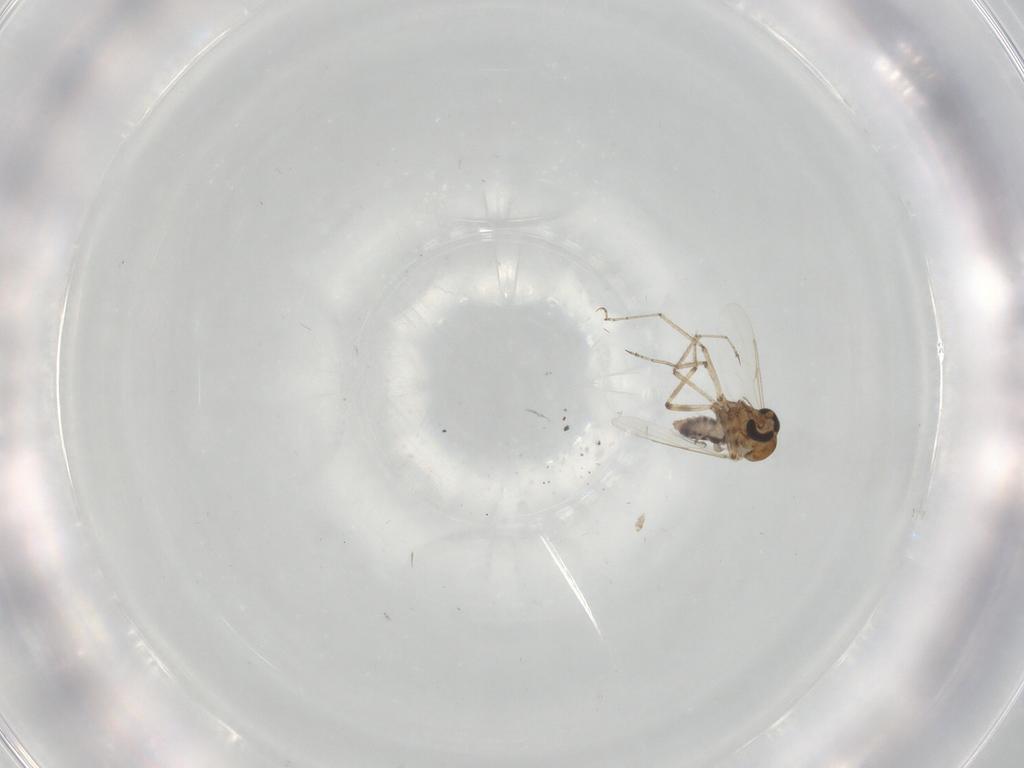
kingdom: Animalia
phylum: Arthropoda
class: Insecta
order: Diptera
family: Ceratopogonidae
